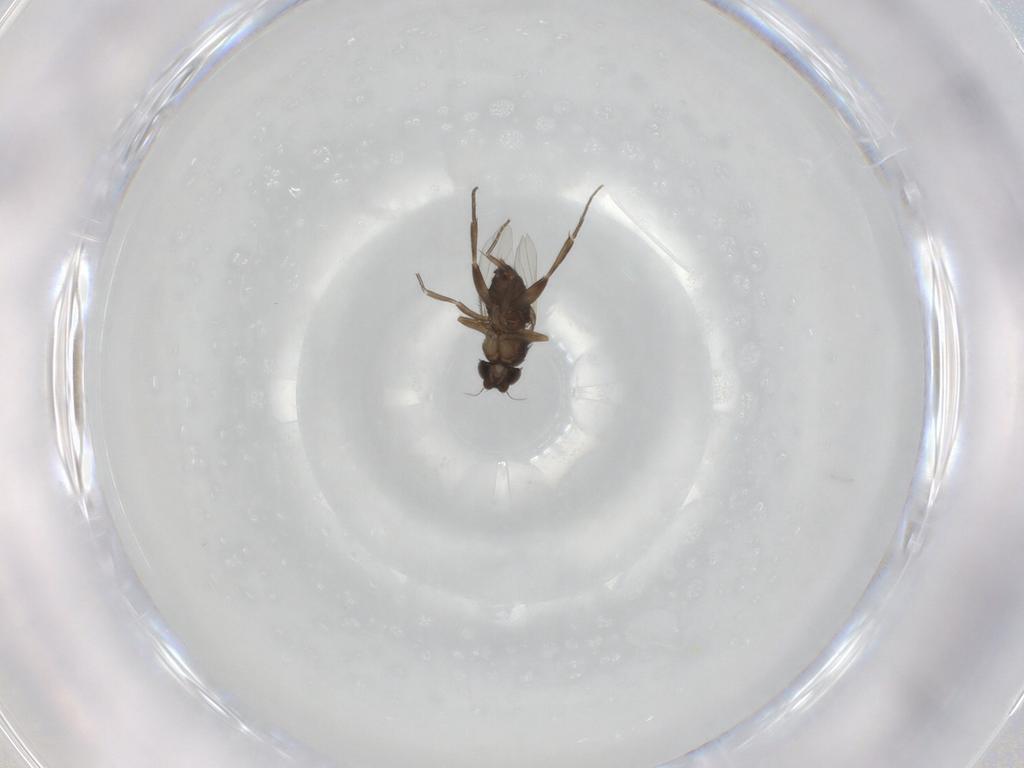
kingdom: Animalia
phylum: Arthropoda
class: Insecta
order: Diptera
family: Phoridae
